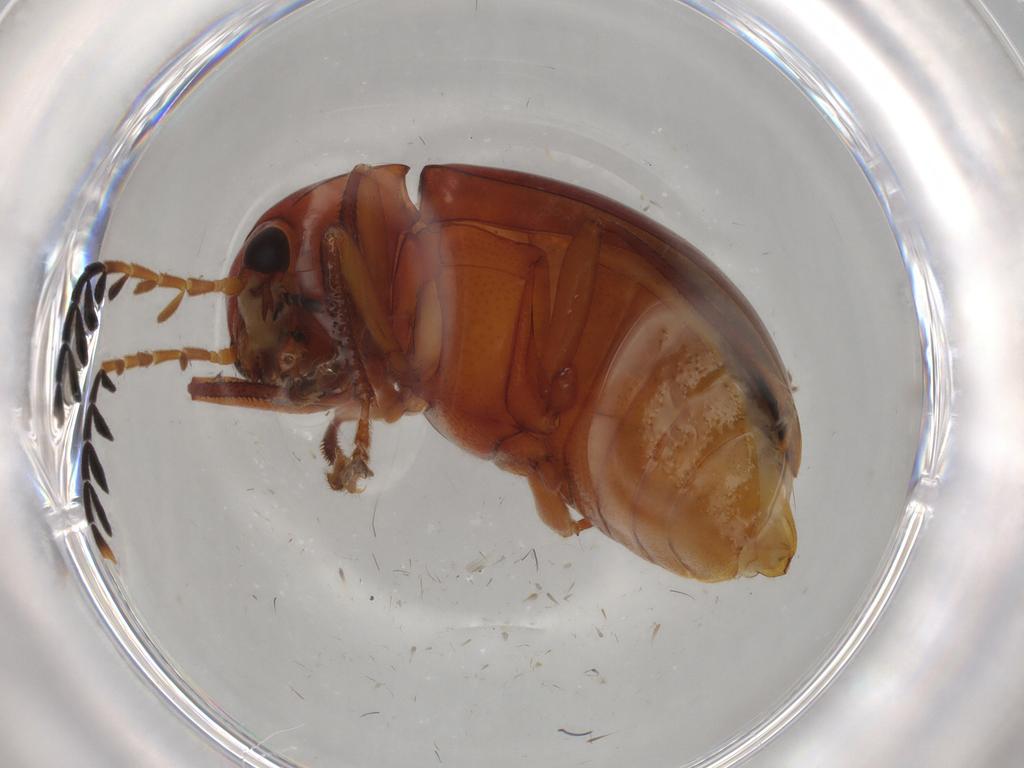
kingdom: Animalia
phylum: Arthropoda
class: Insecta
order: Coleoptera
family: Ptilodactylidae
